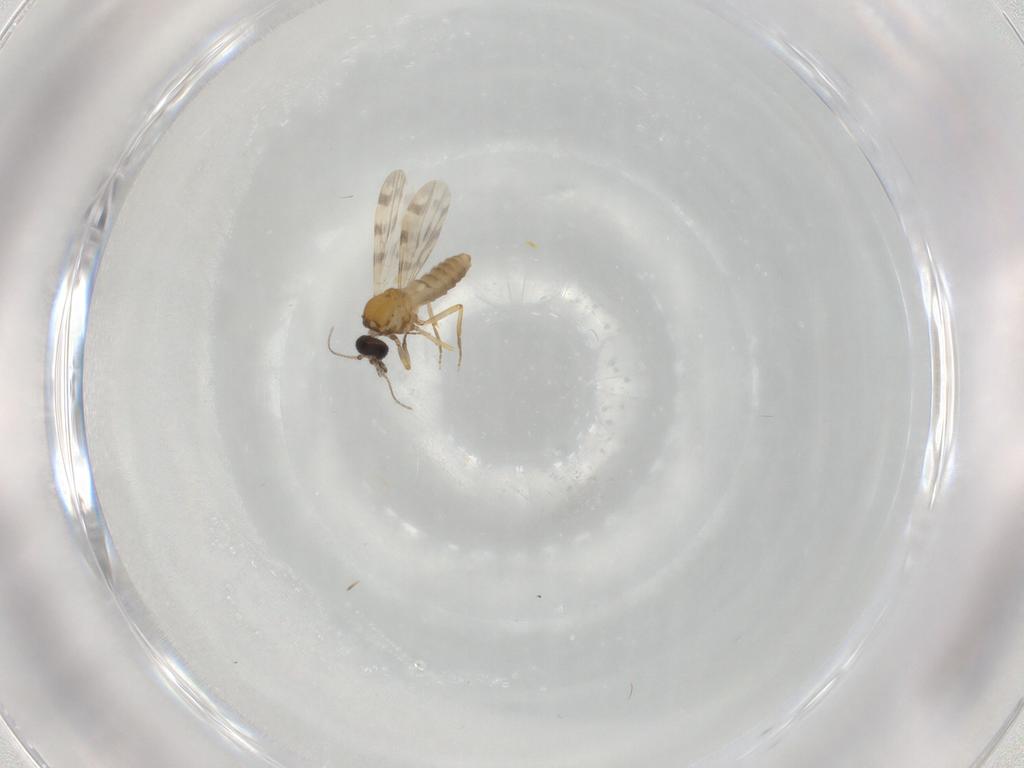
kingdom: Animalia
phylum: Arthropoda
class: Insecta
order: Diptera
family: Ceratopogonidae
